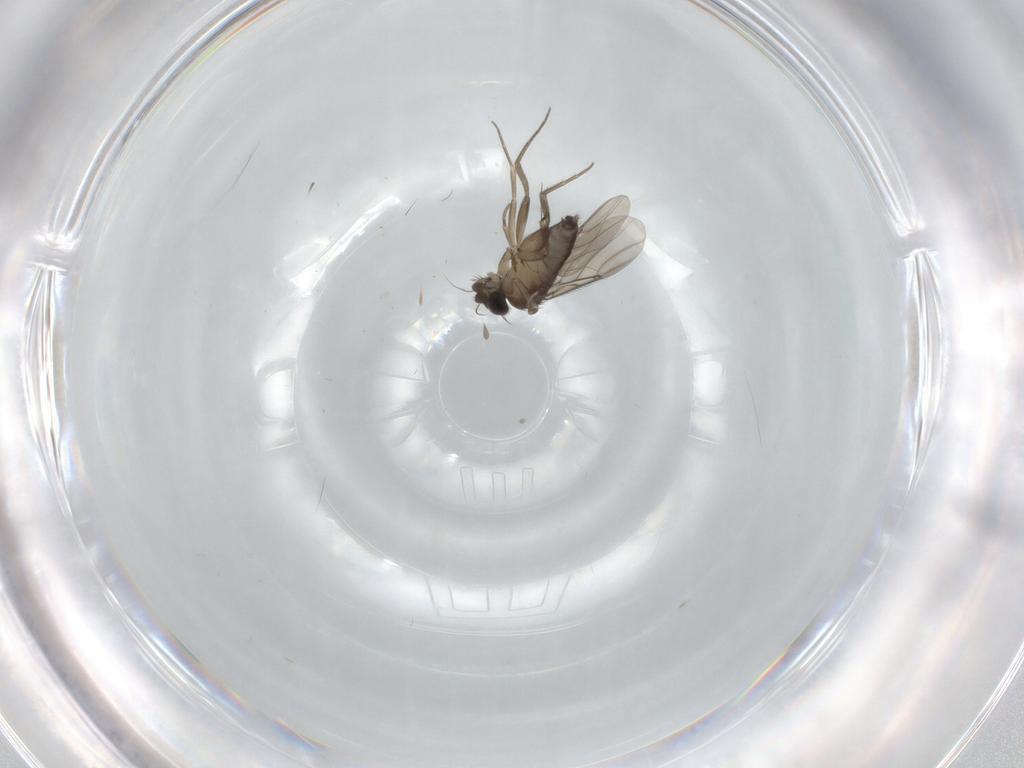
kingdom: Animalia
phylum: Arthropoda
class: Insecta
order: Diptera
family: Phoridae
